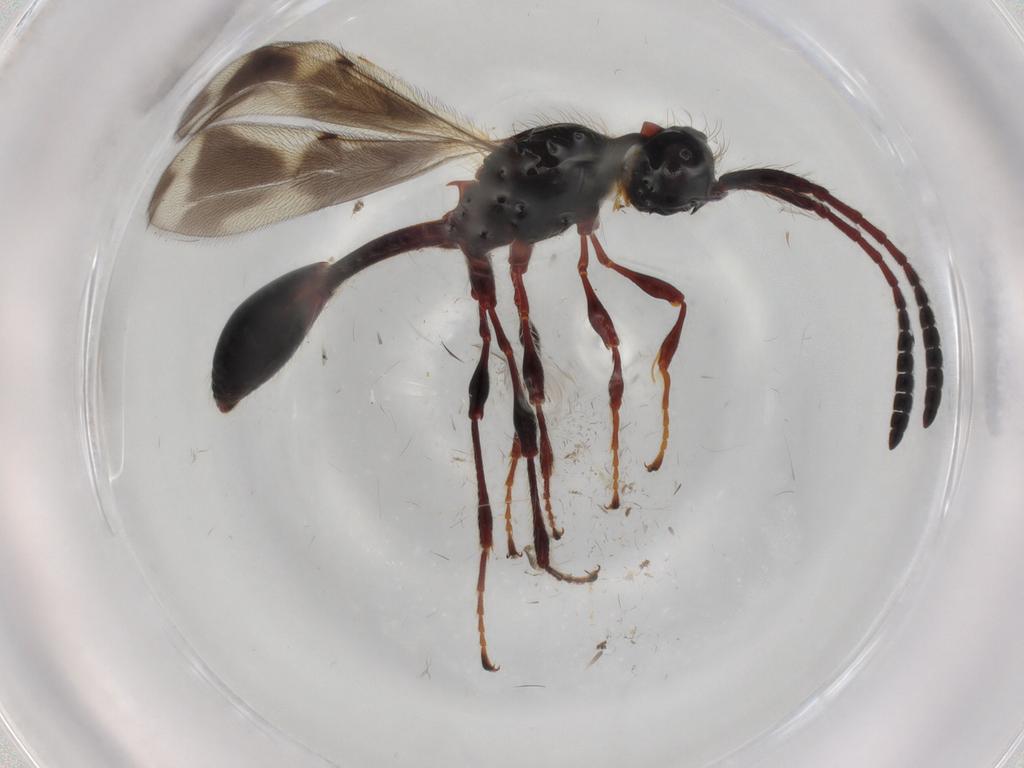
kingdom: Animalia
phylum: Arthropoda
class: Insecta
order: Hymenoptera
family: Diapriidae
